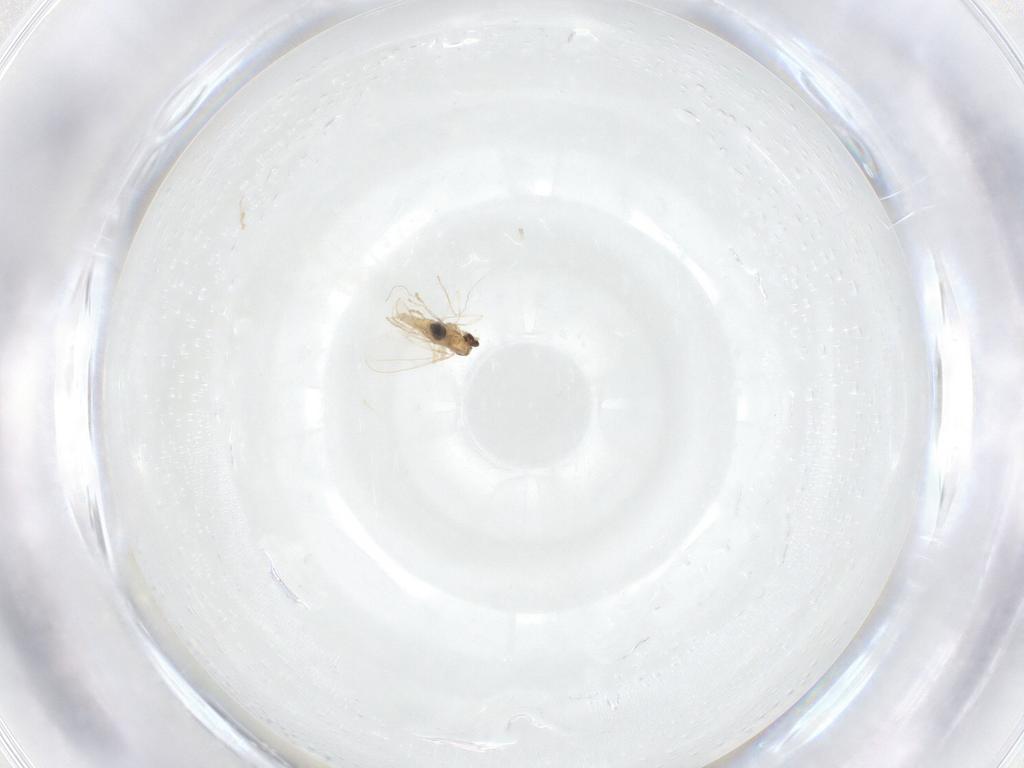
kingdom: Animalia
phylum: Arthropoda
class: Insecta
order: Diptera
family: Cecidomyiidae
